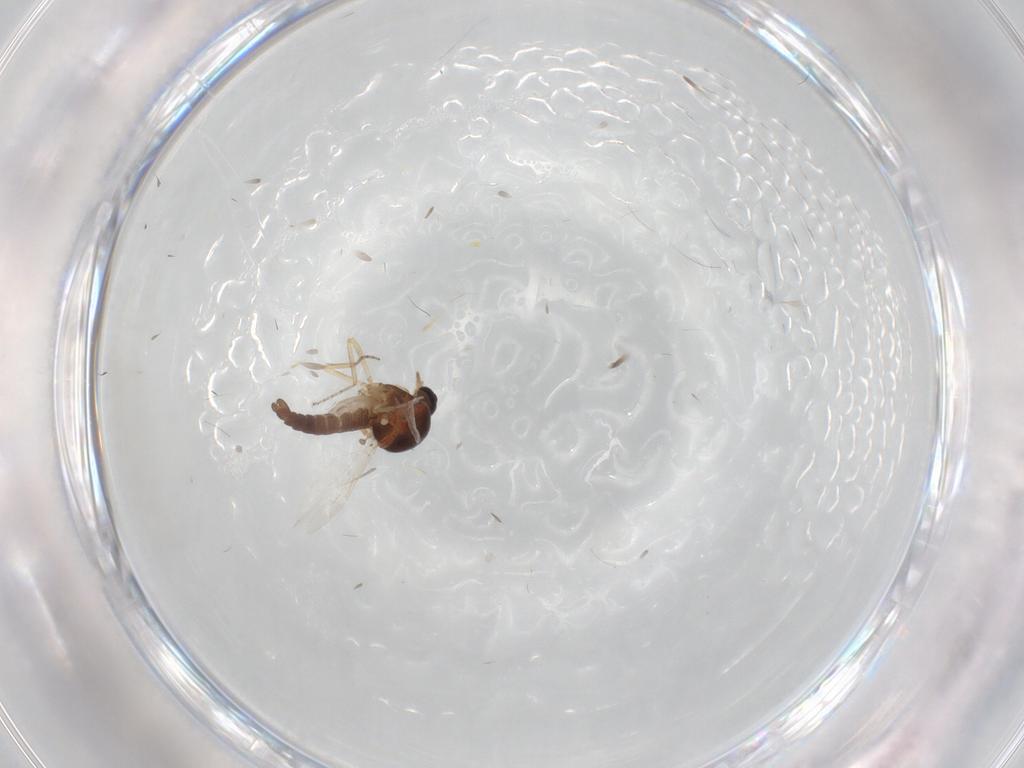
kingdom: Animalia
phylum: Arthropoda
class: Insecta
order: Diptera
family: Ceratopogonidae
